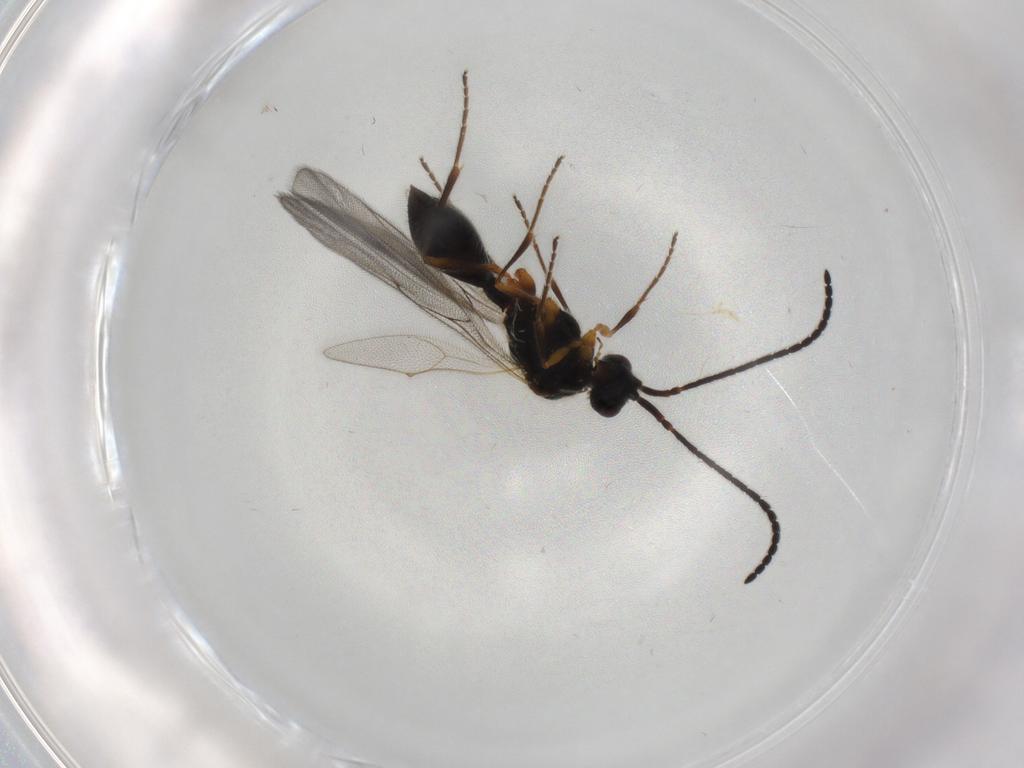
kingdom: Animalia
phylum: Arthropoda
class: Insecta
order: Hymenoptera
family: Diapriidae
